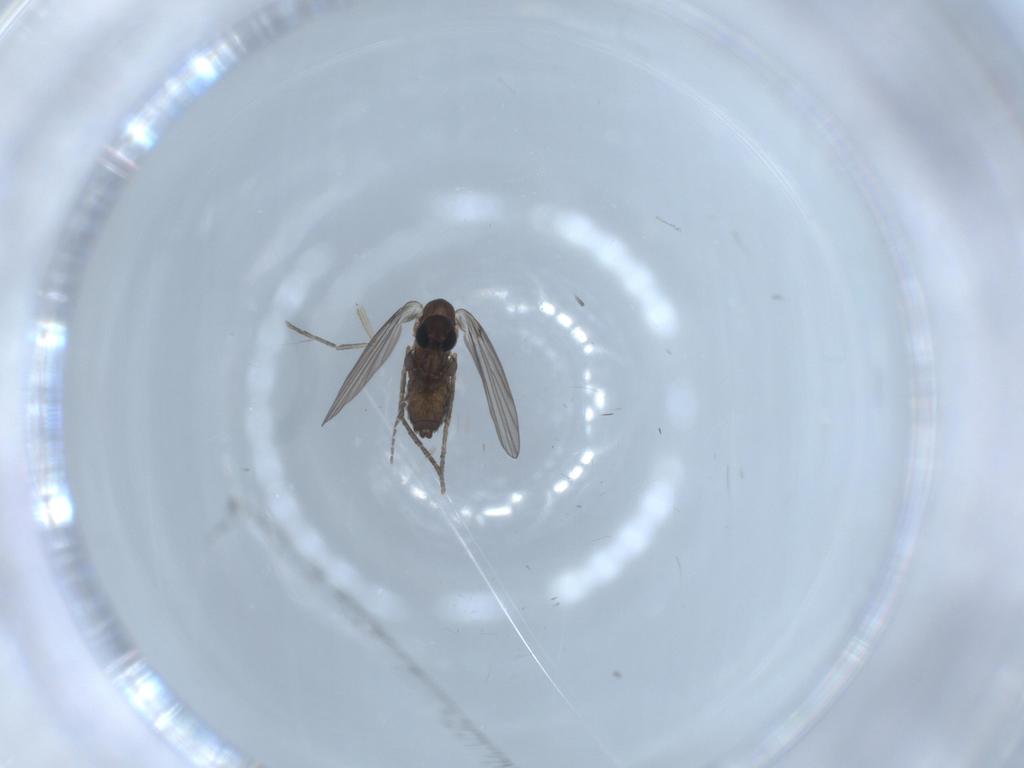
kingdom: Animalia
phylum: Arthropoda
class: Insecta
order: Diptera
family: Psychodidae
